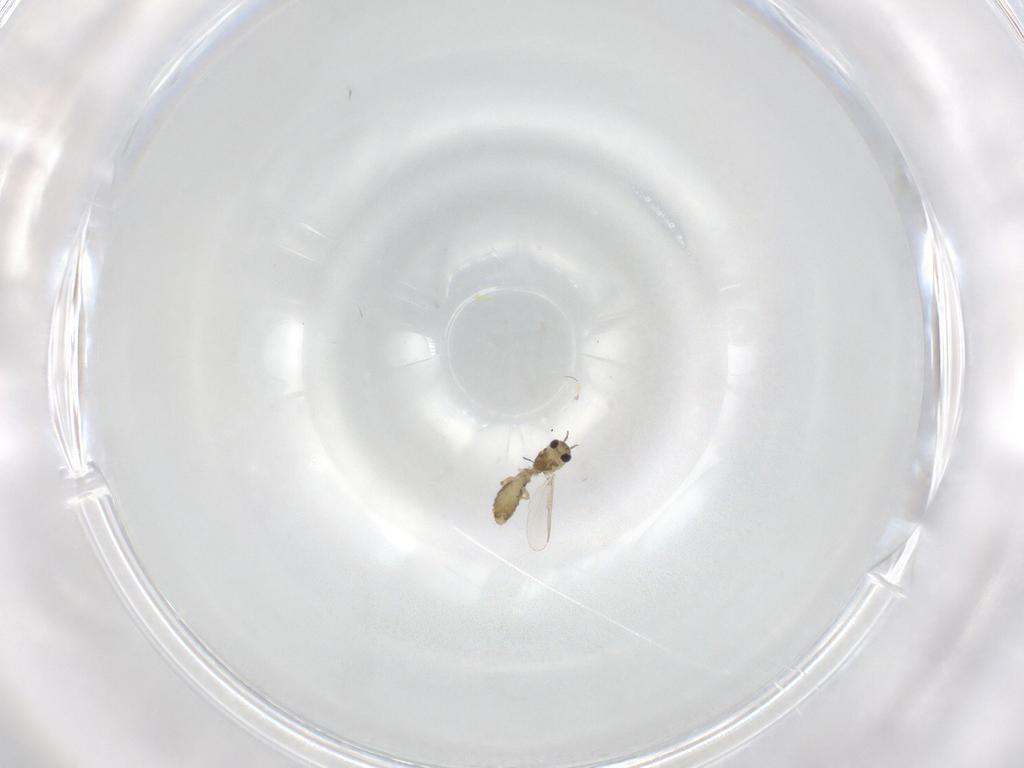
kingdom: Animalia
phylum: Arthropoda
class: Insecta
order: Diptera
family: Chironomidae
